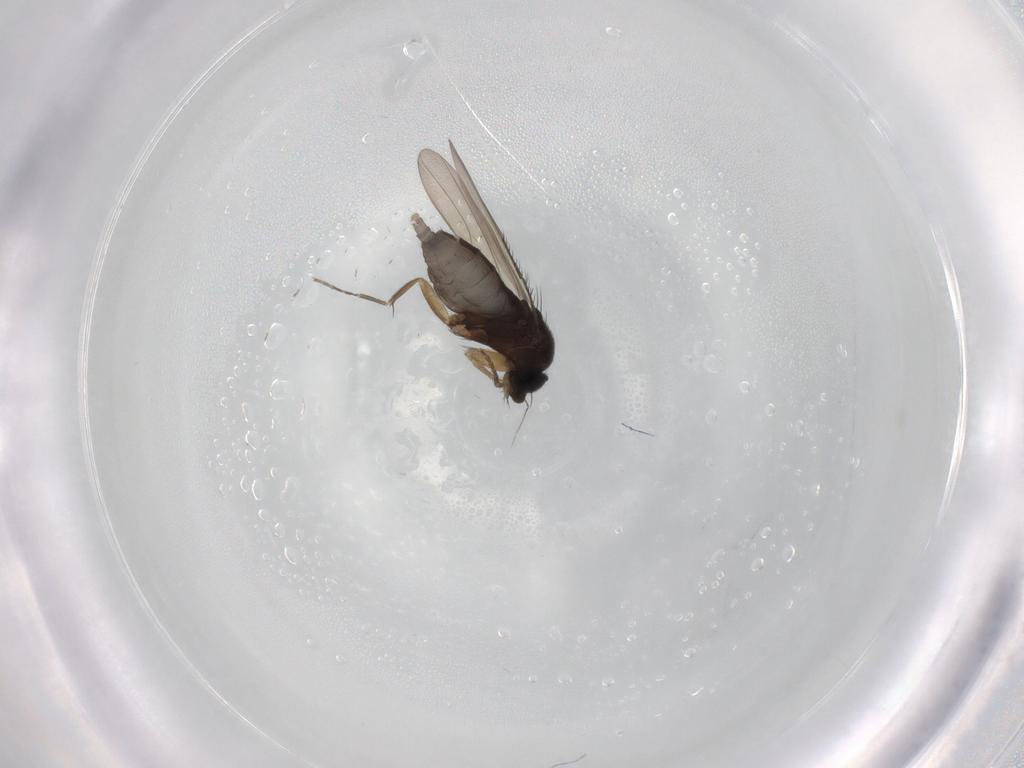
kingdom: Animalia
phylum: Arthropoda
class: Insecta
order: Diptera
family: Phoridae
